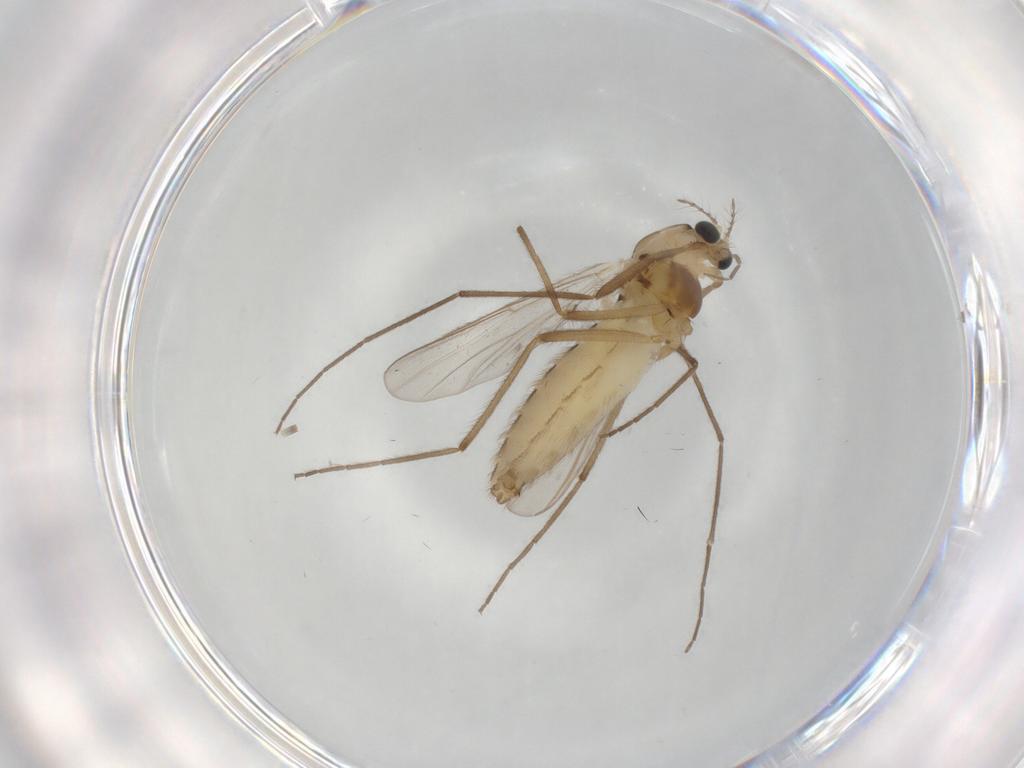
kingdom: Animalia
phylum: Arthropoda
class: Insecta
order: Diptera
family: Chironomidae
